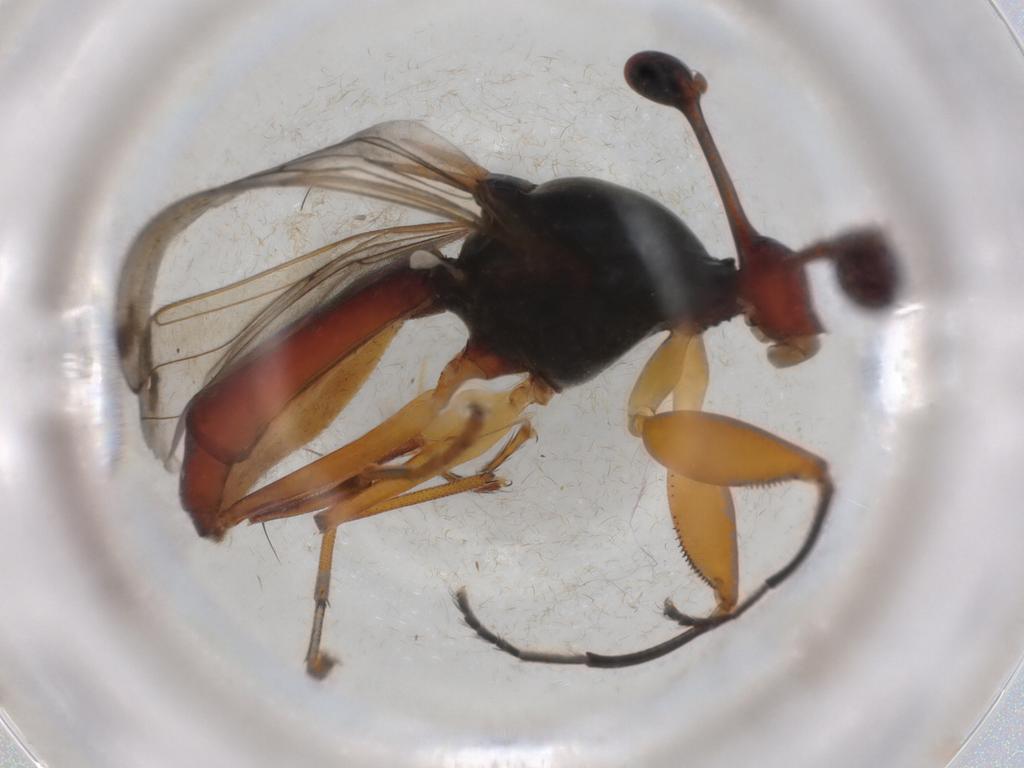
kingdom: Animalia
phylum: Arthropoda
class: Insecta
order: Diptera
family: Diopsidae
